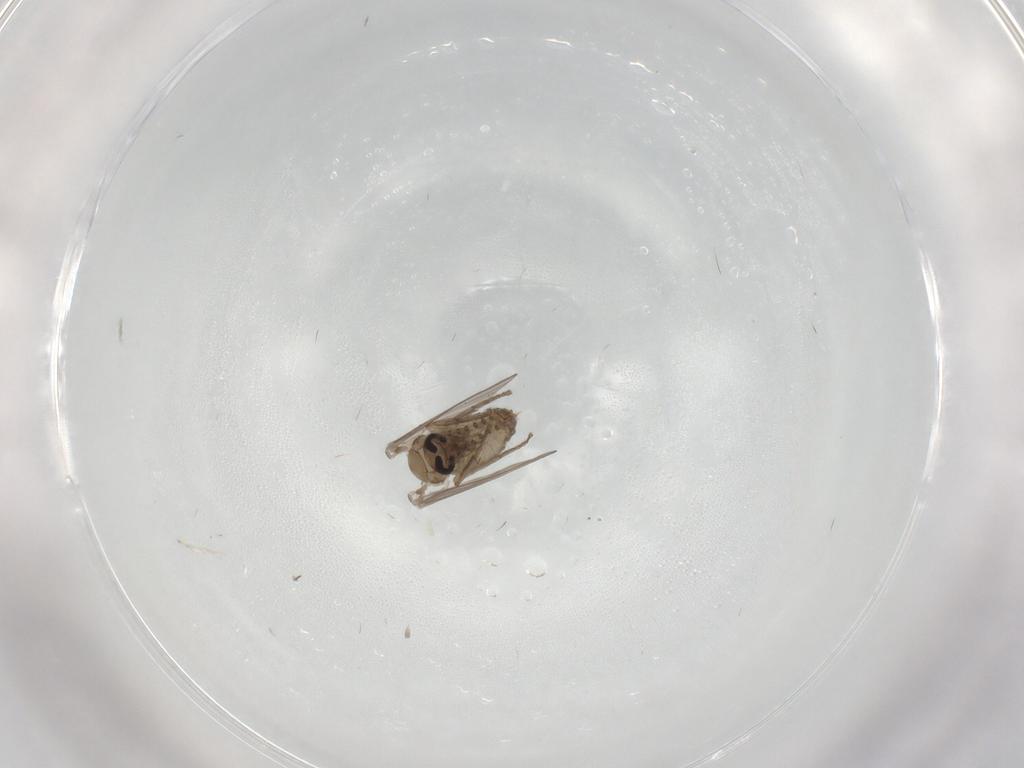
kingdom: Animalia
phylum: Arthropoda
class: Insecta
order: Diptera
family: Psychodidae
